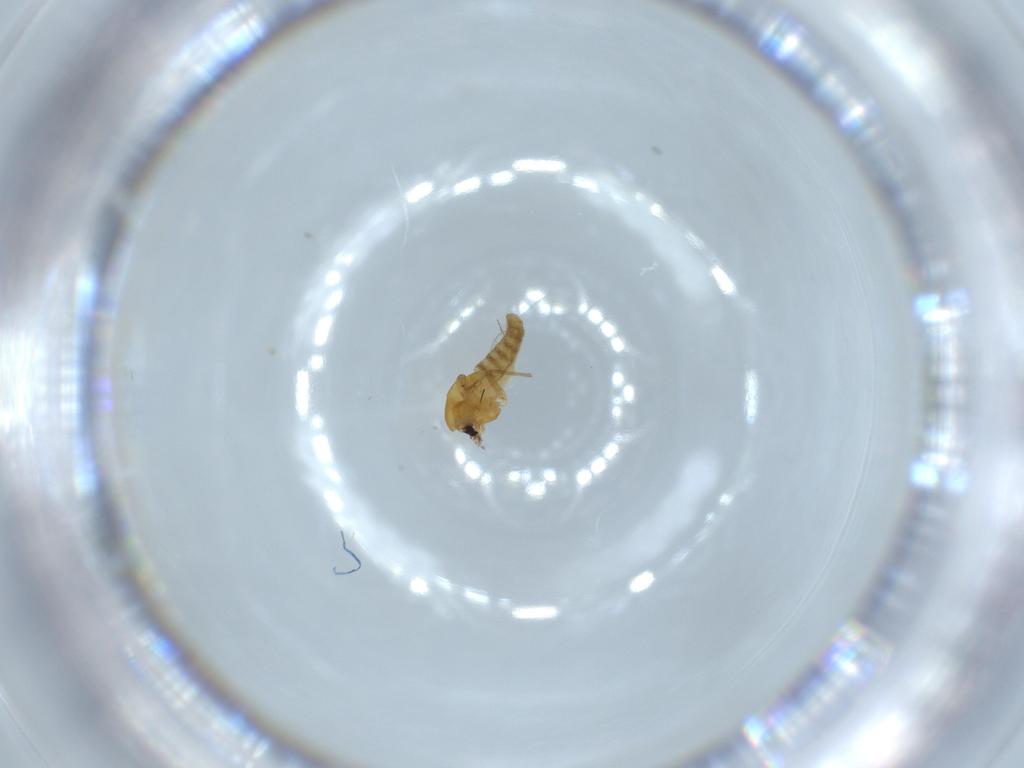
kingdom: Animalia
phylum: Arthropoda
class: Insecta
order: Diptera
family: Chironomidae
